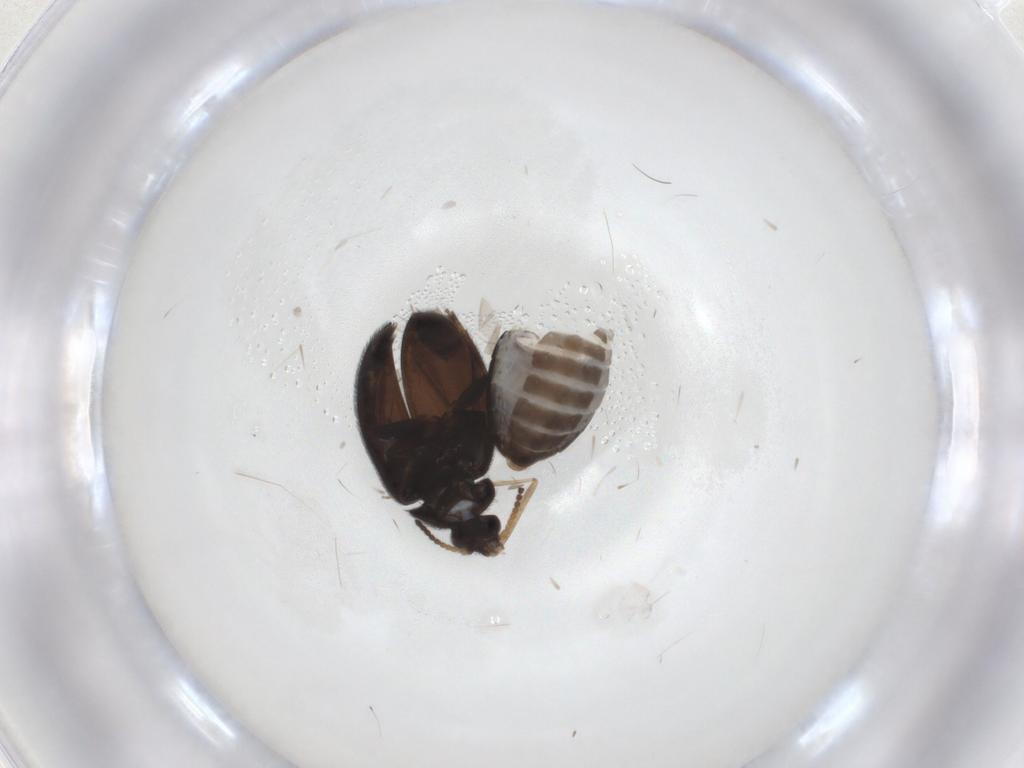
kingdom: Animalia
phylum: Arthropoda
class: Insecta
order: Coleoptera
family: Scirtidae
